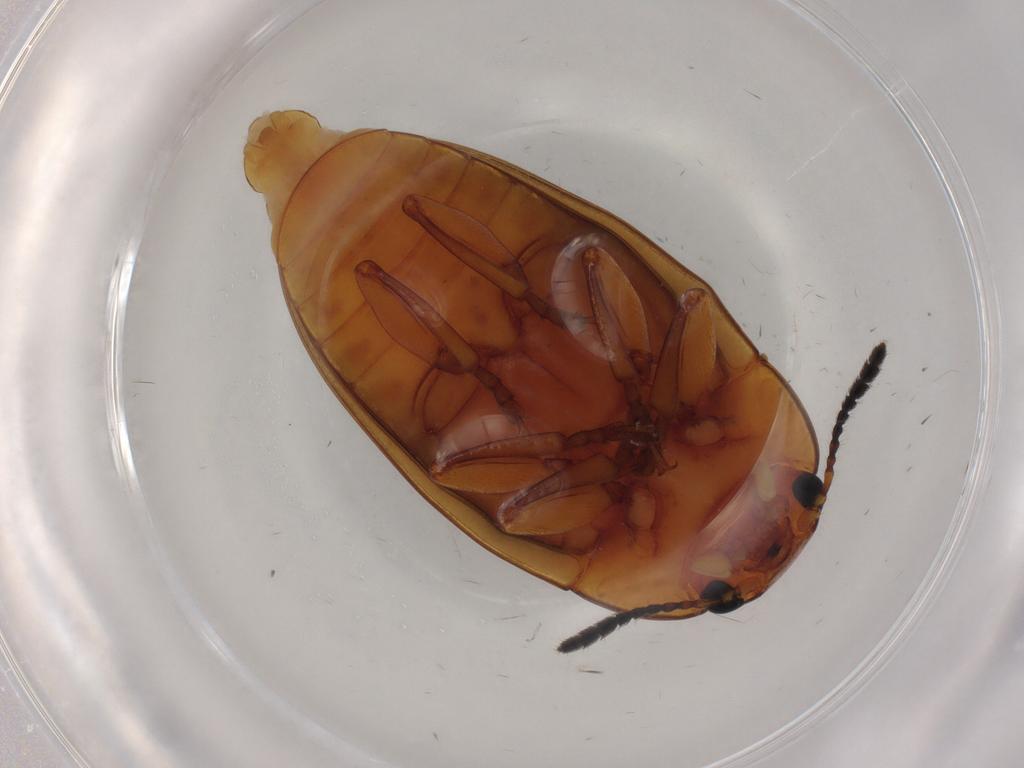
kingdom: Animalia
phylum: Arthropoda
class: Insecta
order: Coleoptera
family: Erotylidae
